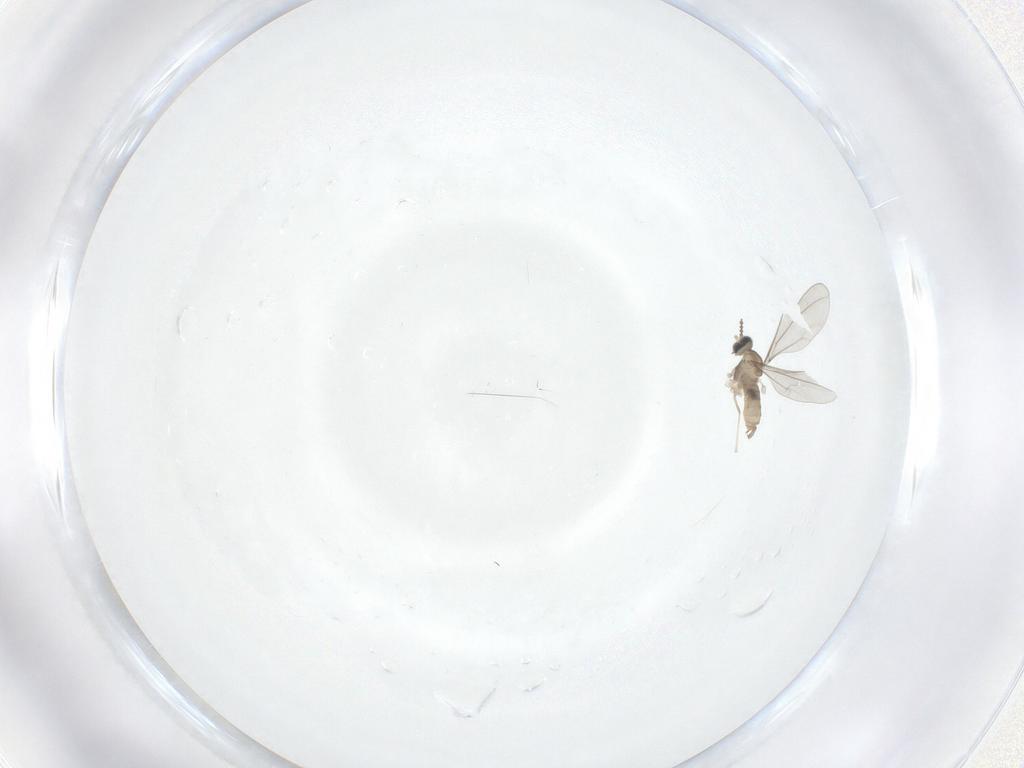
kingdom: Animalia
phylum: Arthropoda
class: Insecta
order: Diptera
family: Cecidomyiidae
